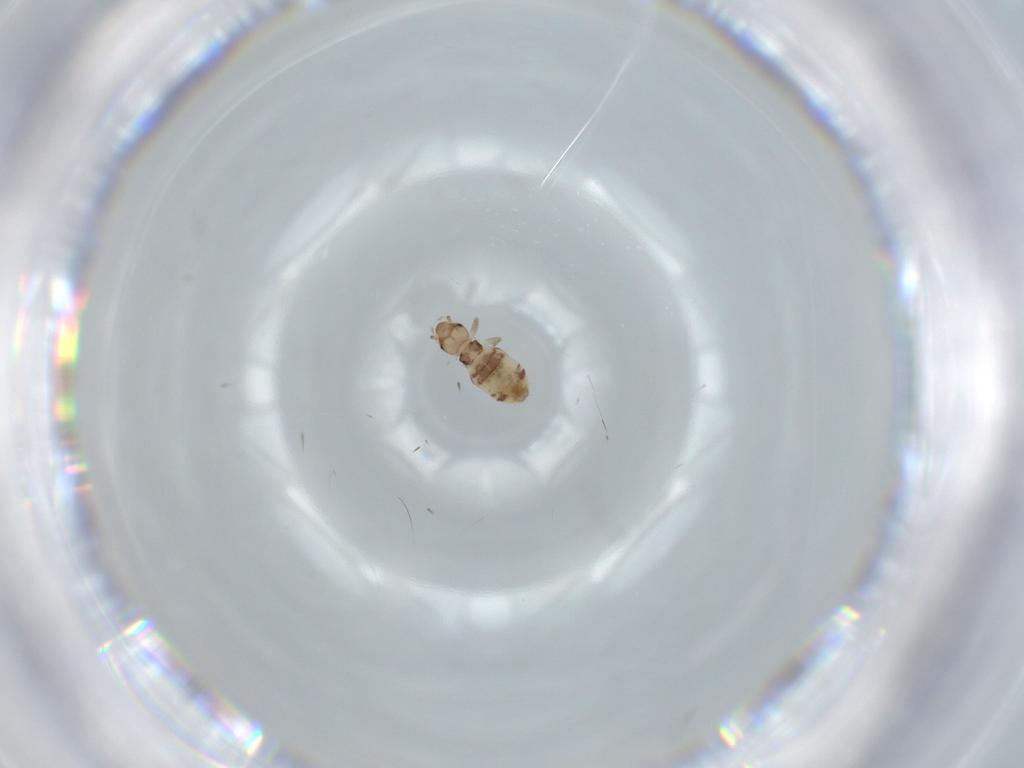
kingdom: Animalia
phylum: Arthropoda
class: Insecta
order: Psocodea
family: Liposcelididae
